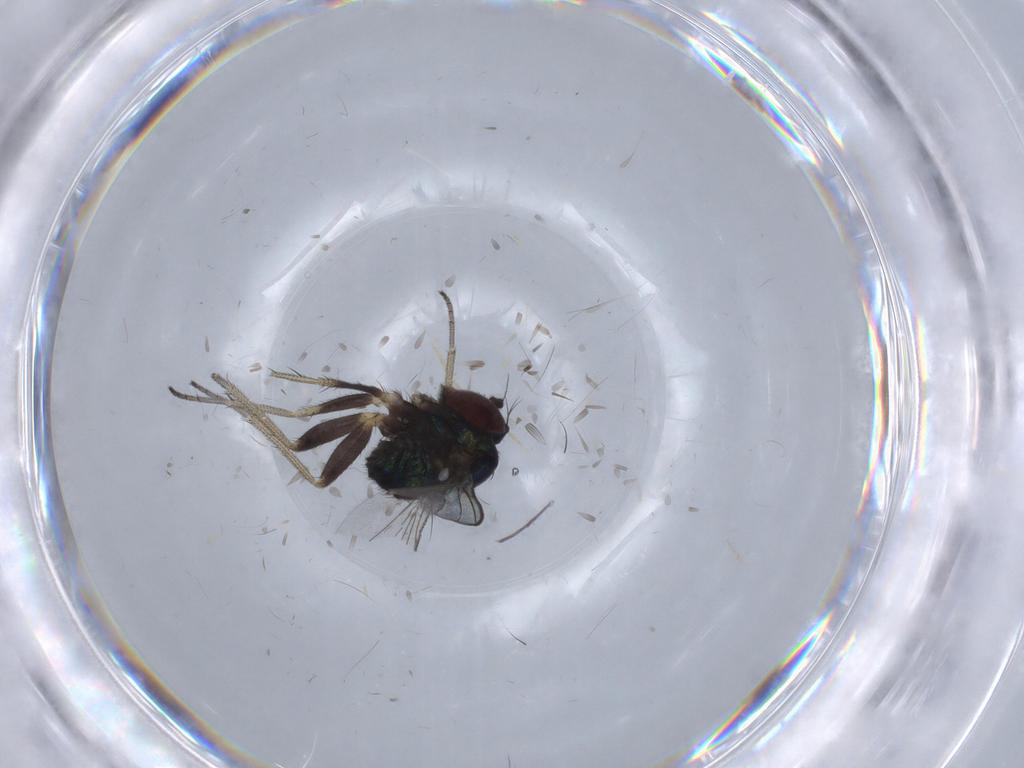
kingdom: Animalia
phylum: Arthropoda
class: Insecta
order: Diptera
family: Dolichopodidae
